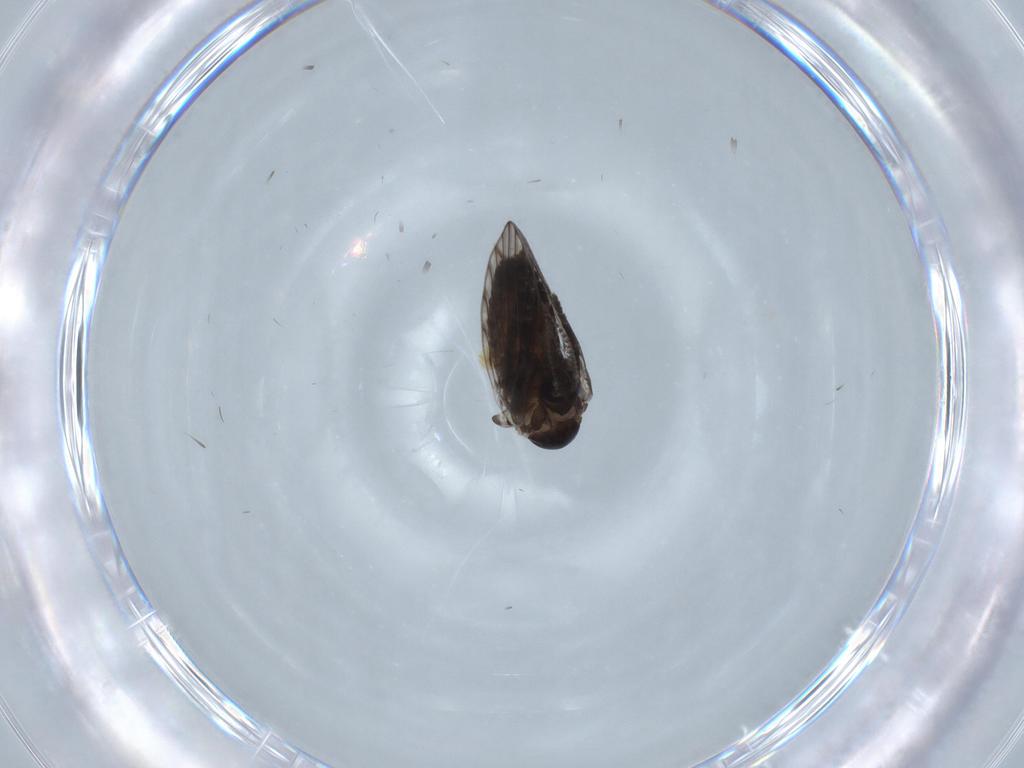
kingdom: Animalia
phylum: Arthropoda
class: Insecta
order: Diptera
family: Psychodidae
